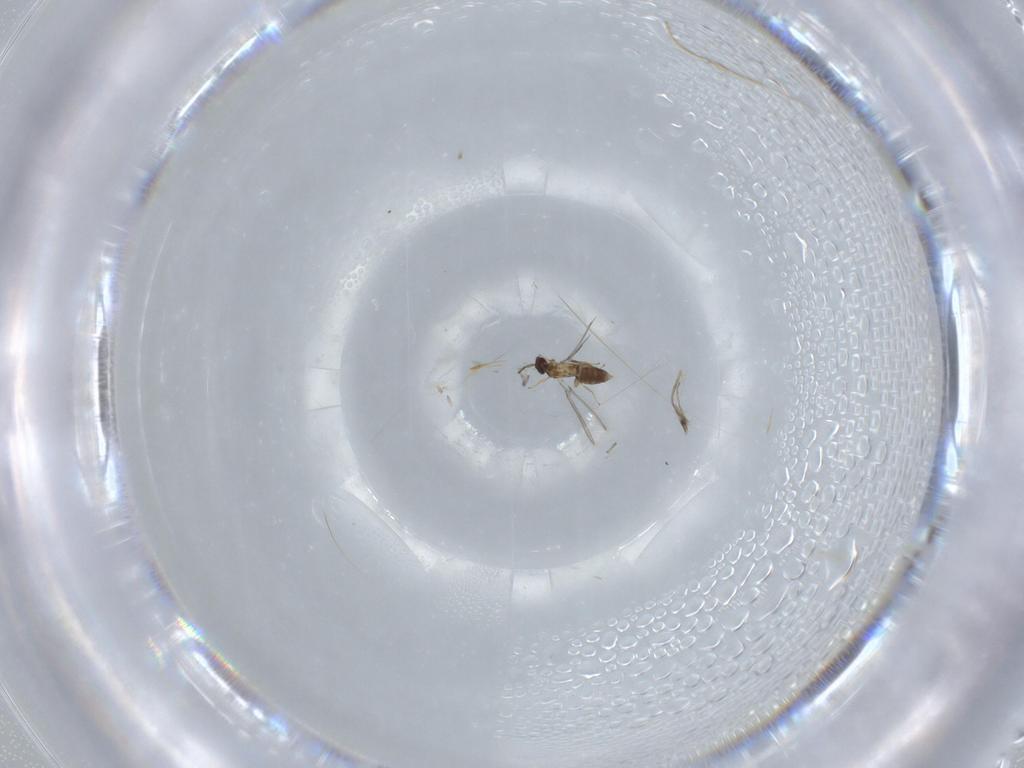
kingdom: Animalia
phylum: Arthropoda
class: Insecta
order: Hymenoptera
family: Mymaridae
